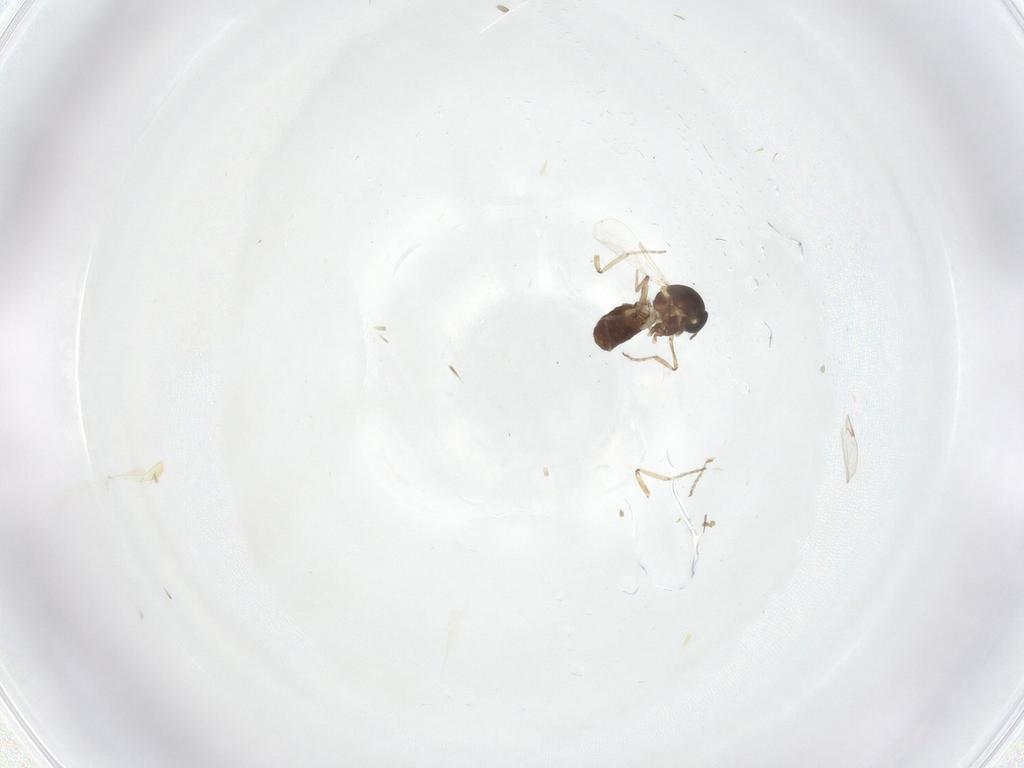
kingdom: Animalia
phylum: Arthropoda
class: Insecta
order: Diptera
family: Ceratopogonidae
